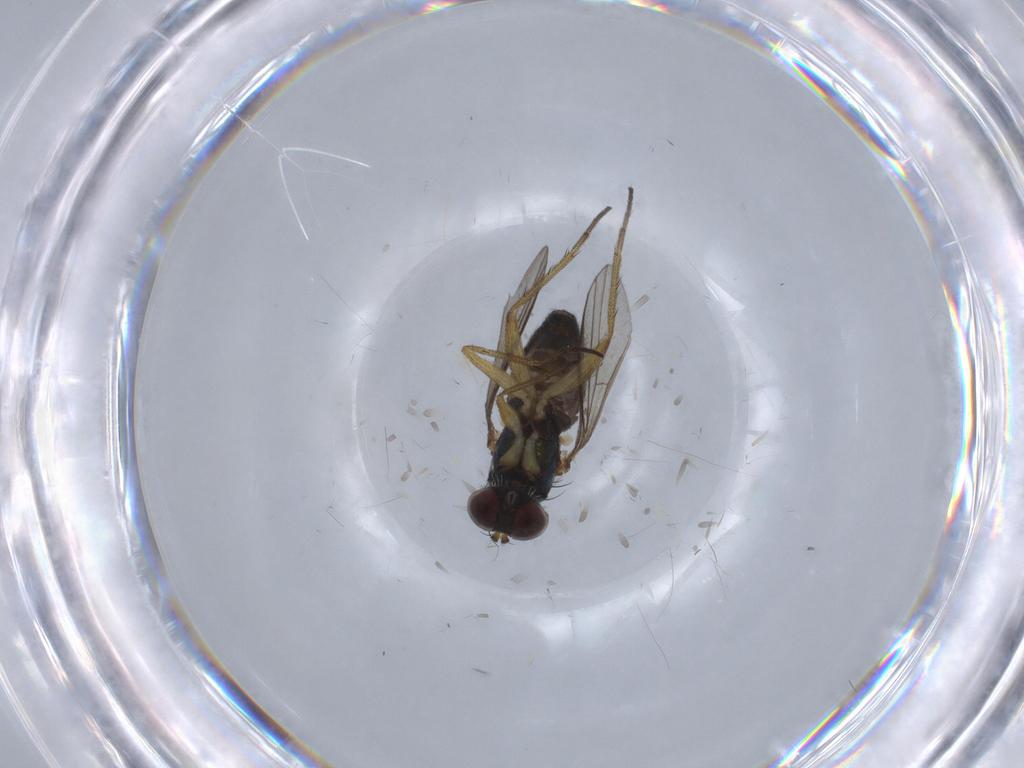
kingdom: Animalia
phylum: Arthropoda
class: Insecta
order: Diptera
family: Dolichopodidae
